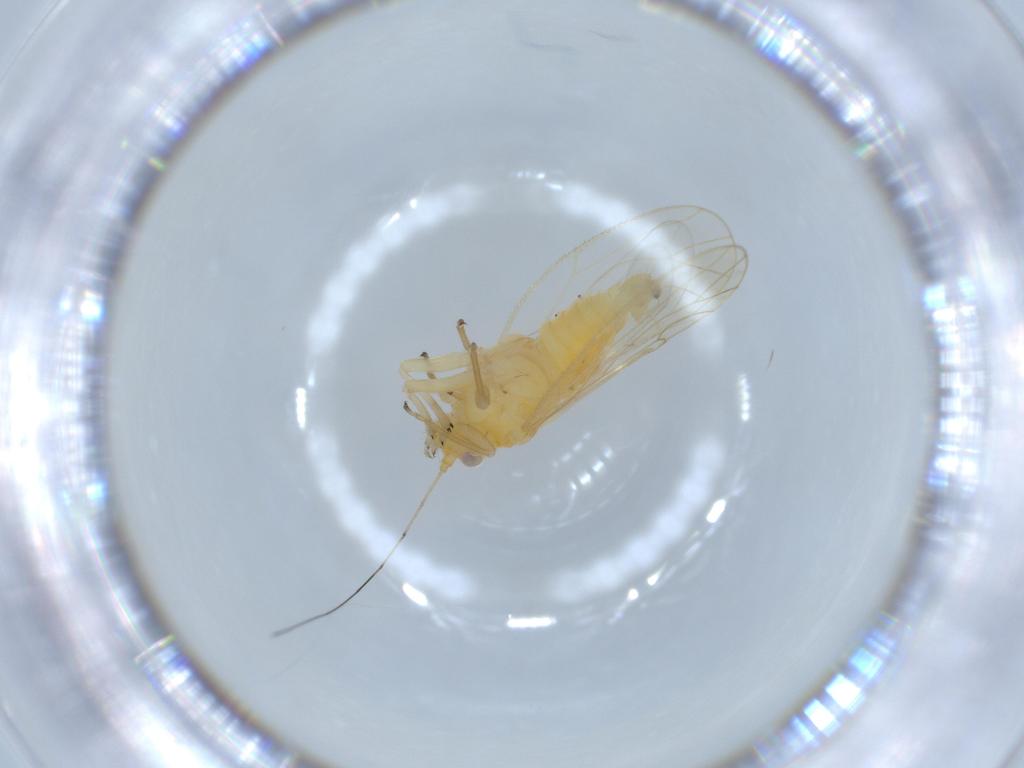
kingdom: Animalia
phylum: Arthropoda
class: Insecta
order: Hemiptera
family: Psyllidae
